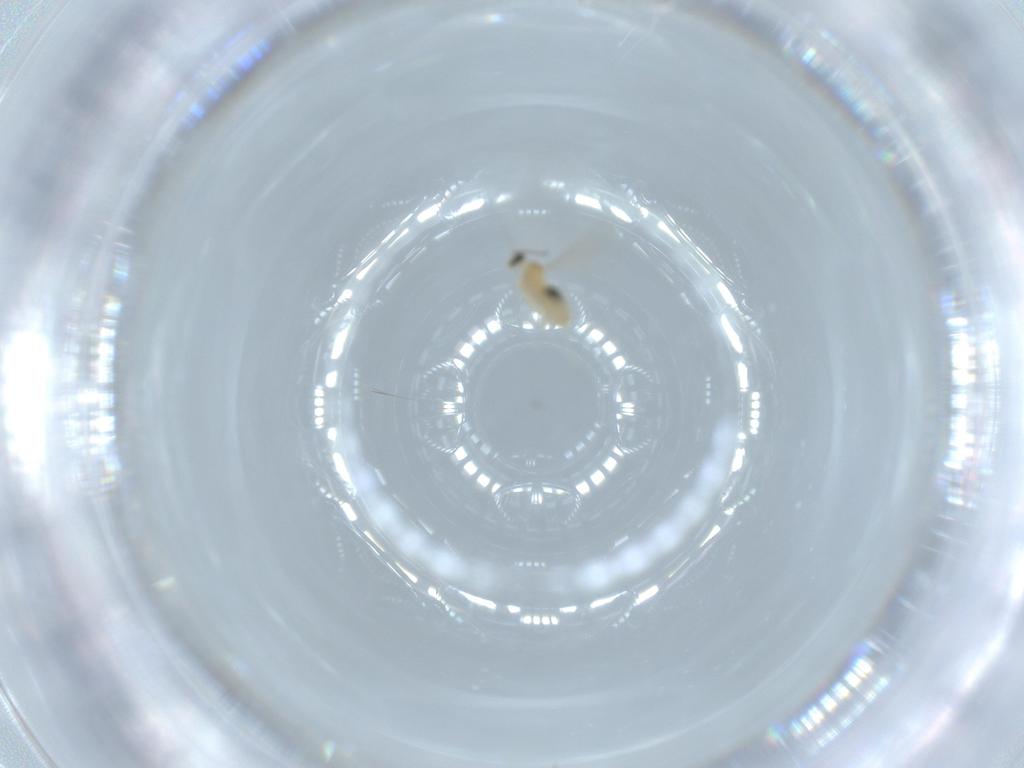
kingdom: Animalia
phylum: Arthropoda
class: Insecta
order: Diptera
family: Cecidomyiidae
